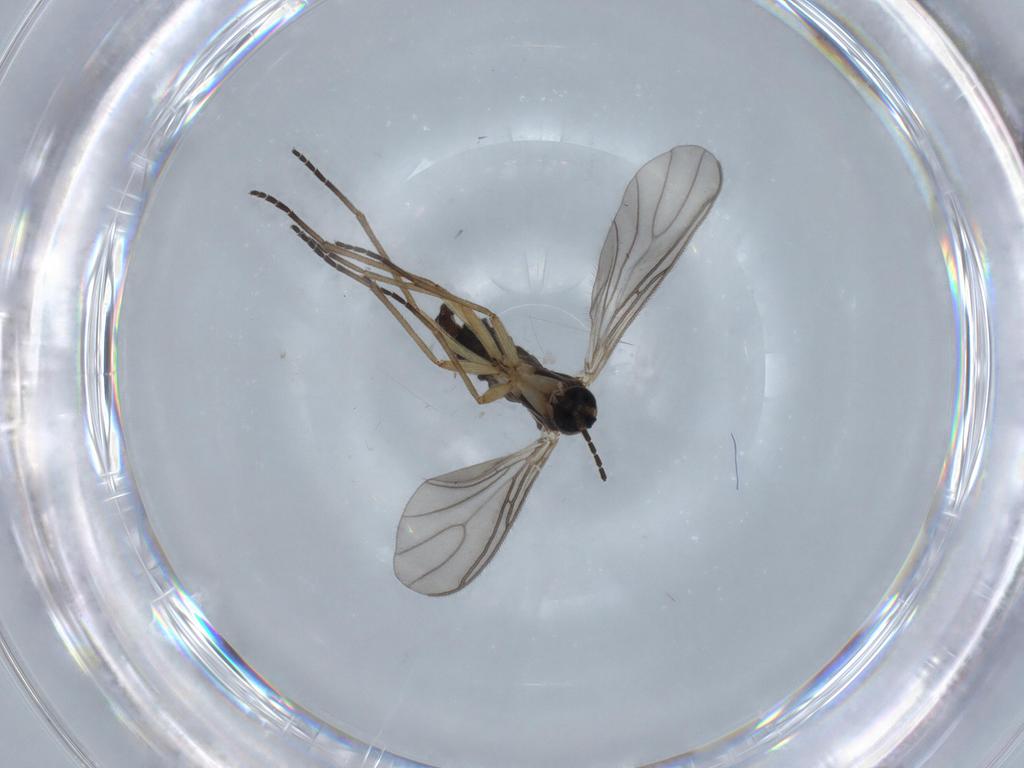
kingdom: Animalia
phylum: Arthropoda
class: Insecta
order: Diptera
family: Sciaridae
